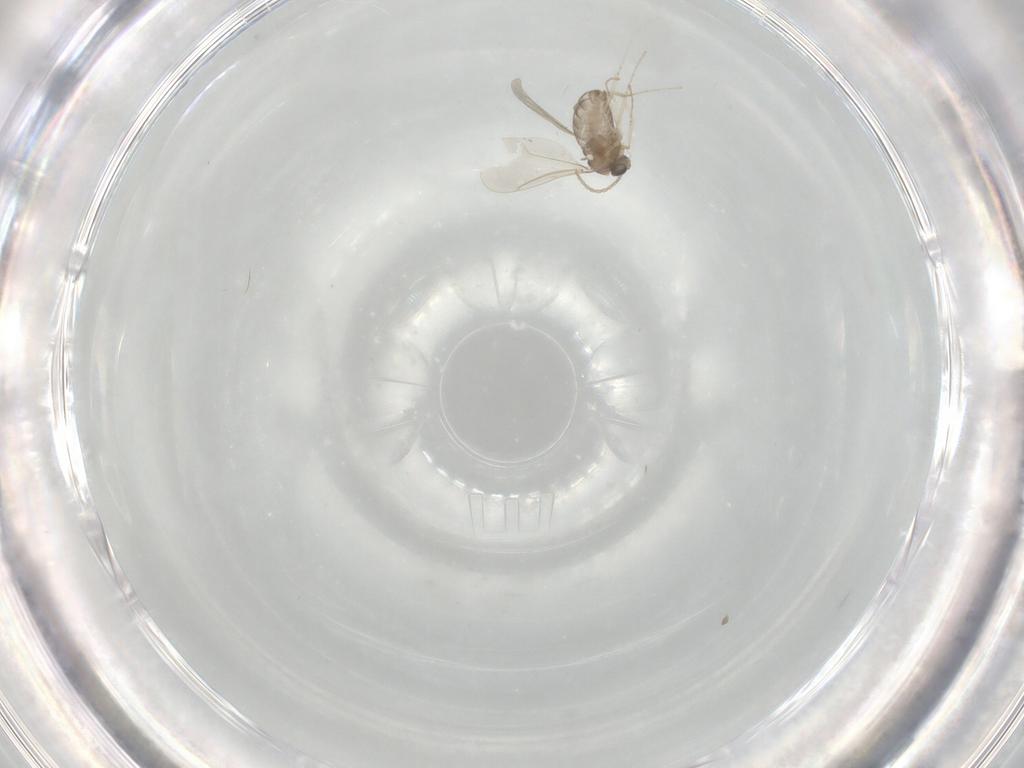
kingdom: Animalia
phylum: Arthropoda
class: Insecta
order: Diptera
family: Cecidomyiidae
